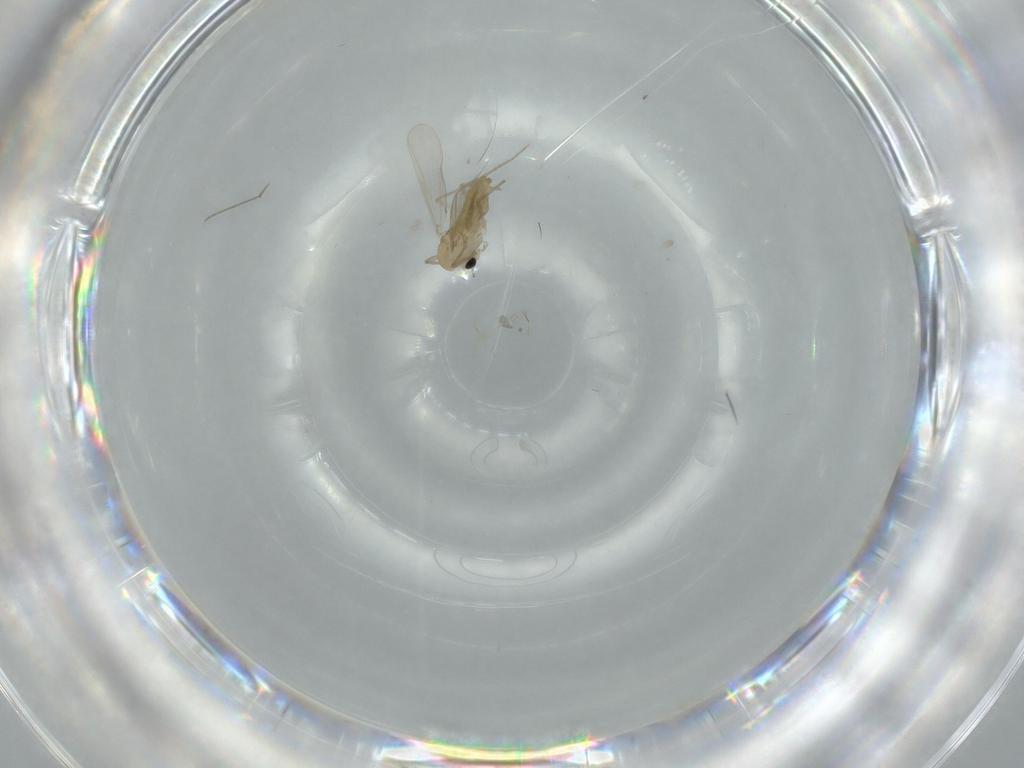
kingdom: Animalia
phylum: Arthropoda
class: Insecta
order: Diptera
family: Chironomidae
